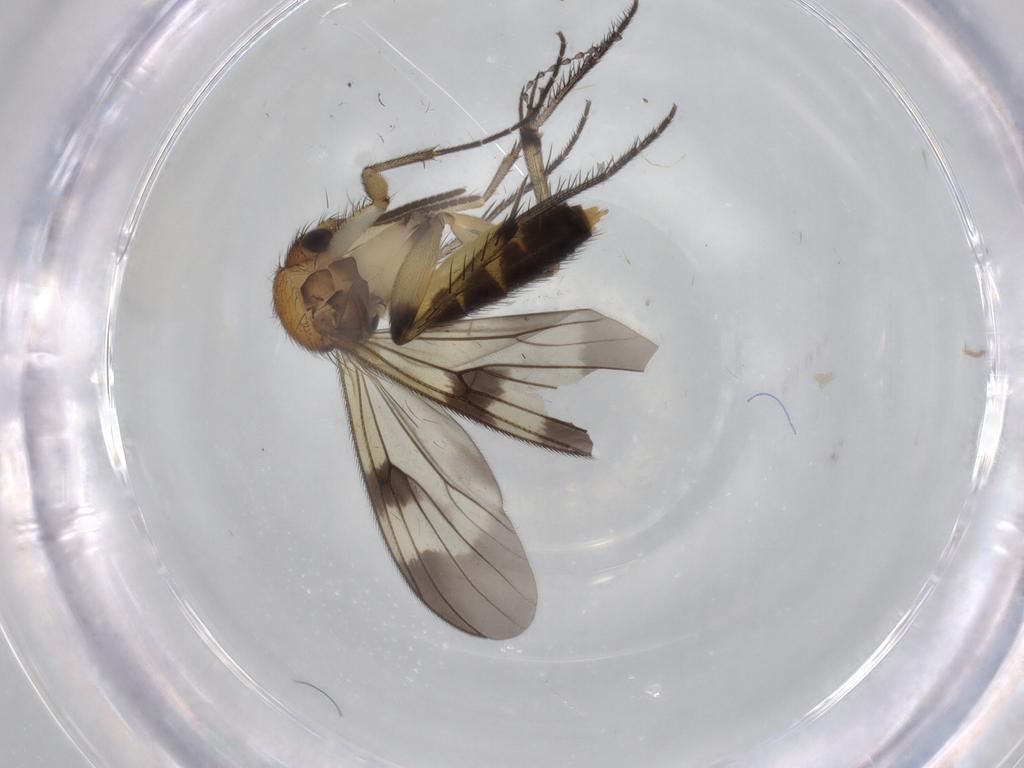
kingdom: Animalia
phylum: Arthropoda
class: Insecta
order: Diptera
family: Mycetophilidae
